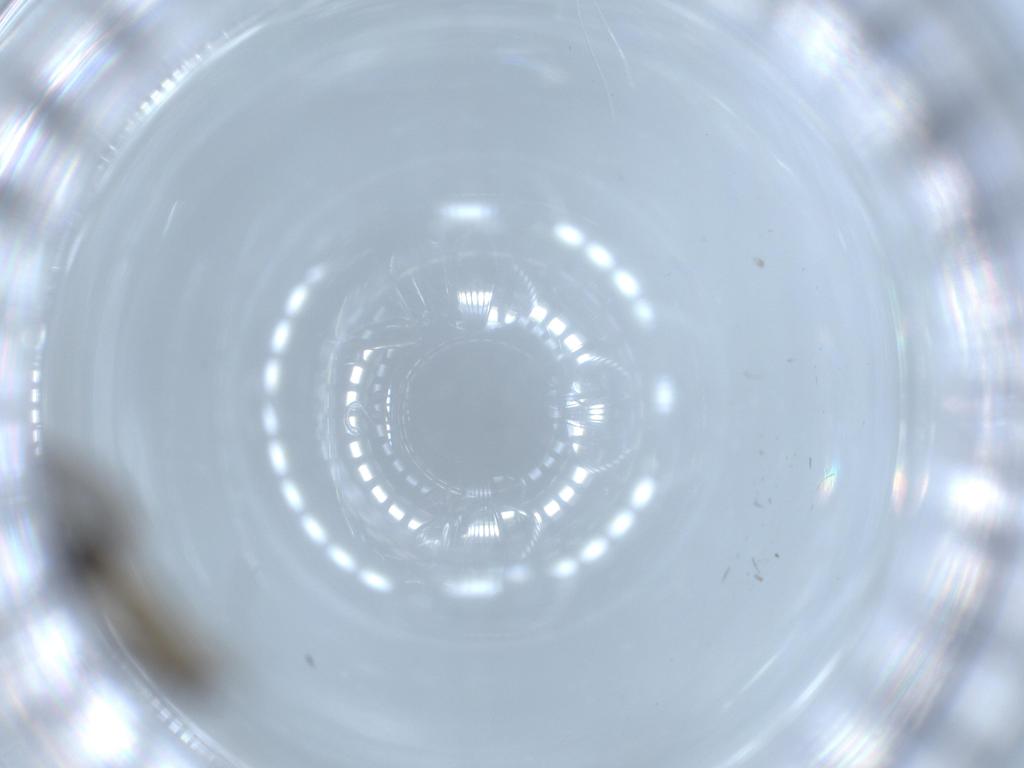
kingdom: Animalia
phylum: Arthropoda
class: Insecta
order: Diptera
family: Sciaridae
